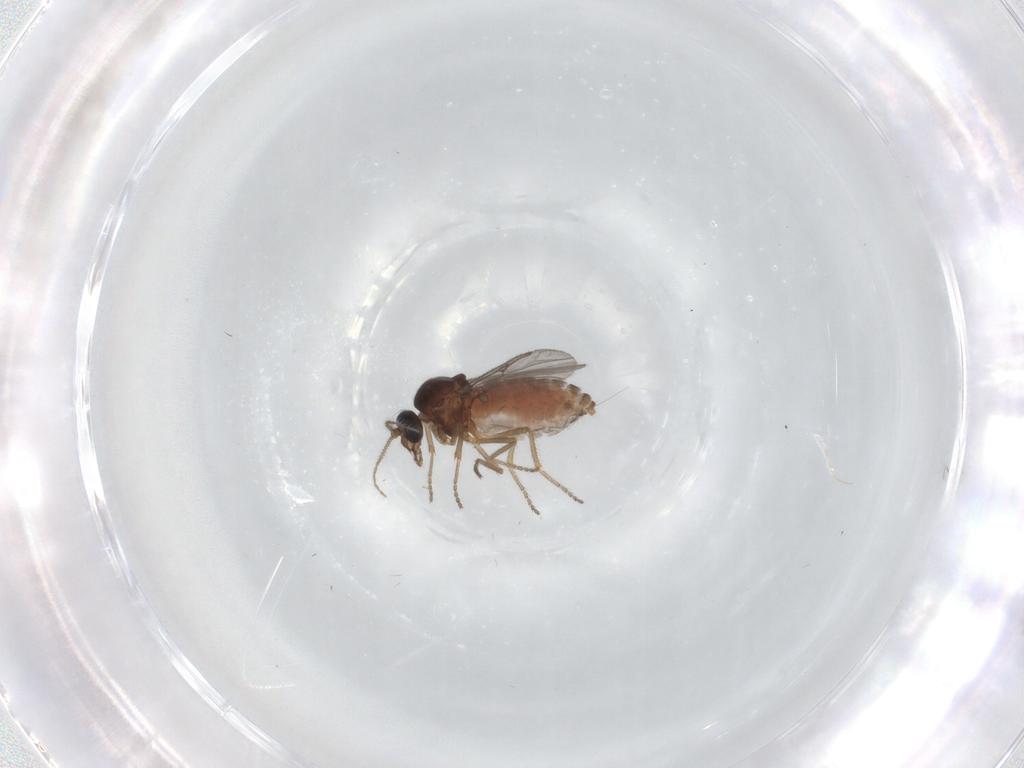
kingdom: Animalia
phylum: Arthropoda
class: Insecta
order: Diptera
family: Ceratopogonidae
